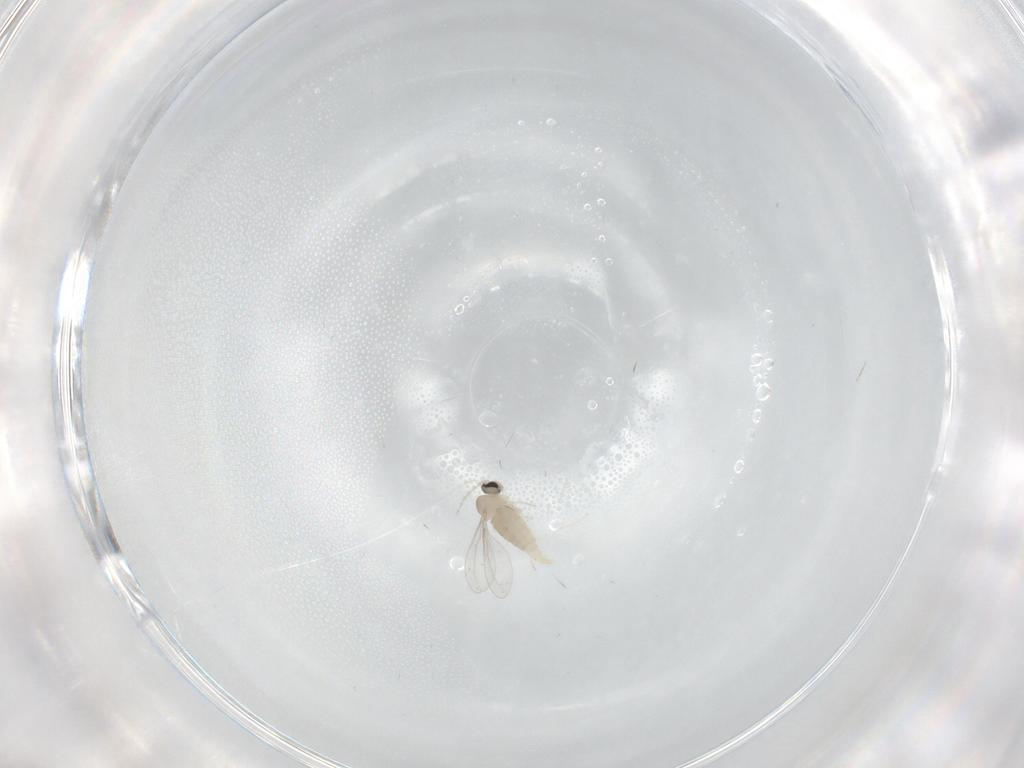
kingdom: Animalia
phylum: Arthropoda
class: Insecta
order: Diptera
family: Cecidomyiidae
